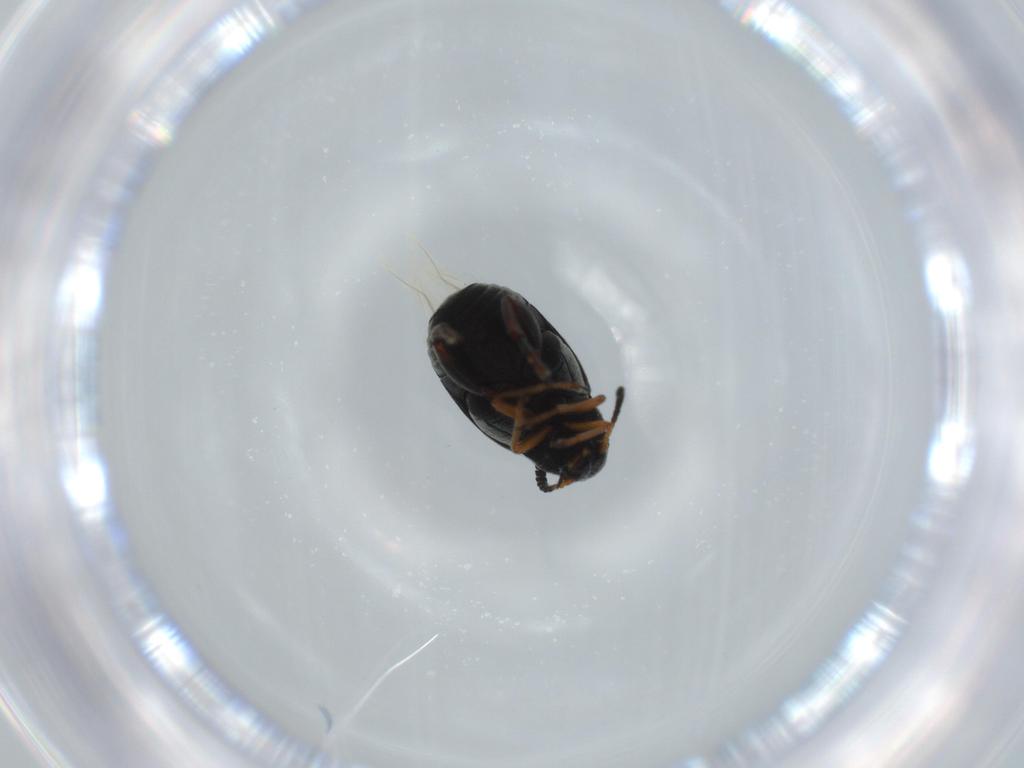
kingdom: Animalia
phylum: Arthropoda
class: Insecta
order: Coleoptera
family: Chrysomelidae
